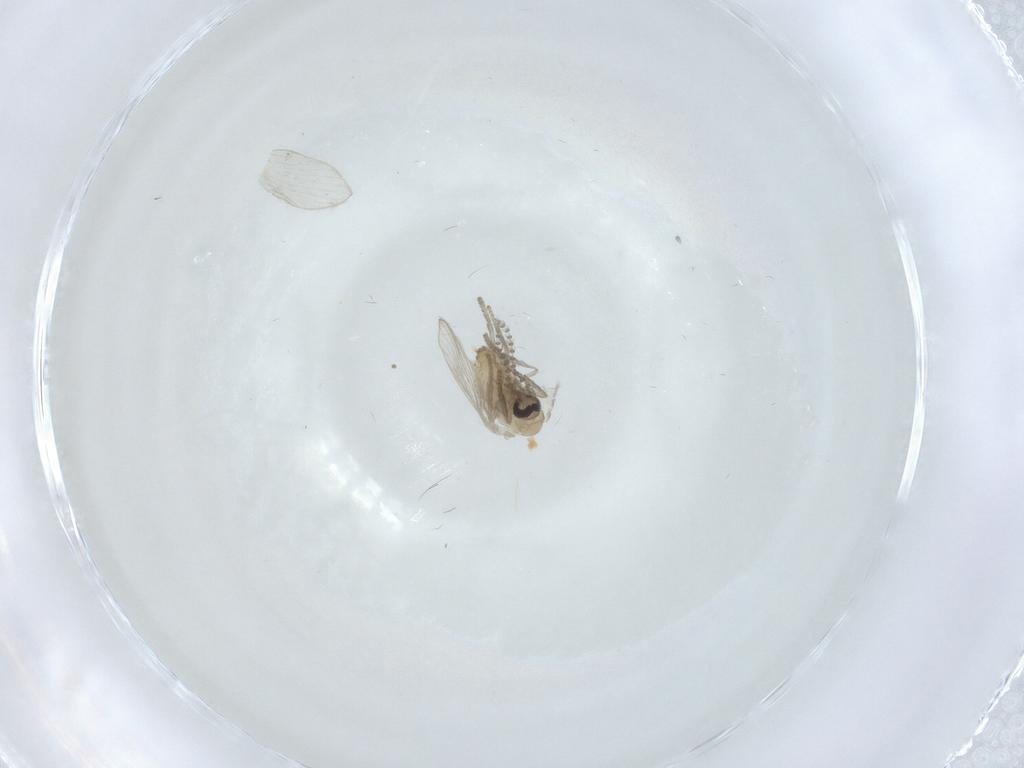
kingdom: Animalia
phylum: Arthropoda
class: Insecta
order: Diptera
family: Psychodidae
